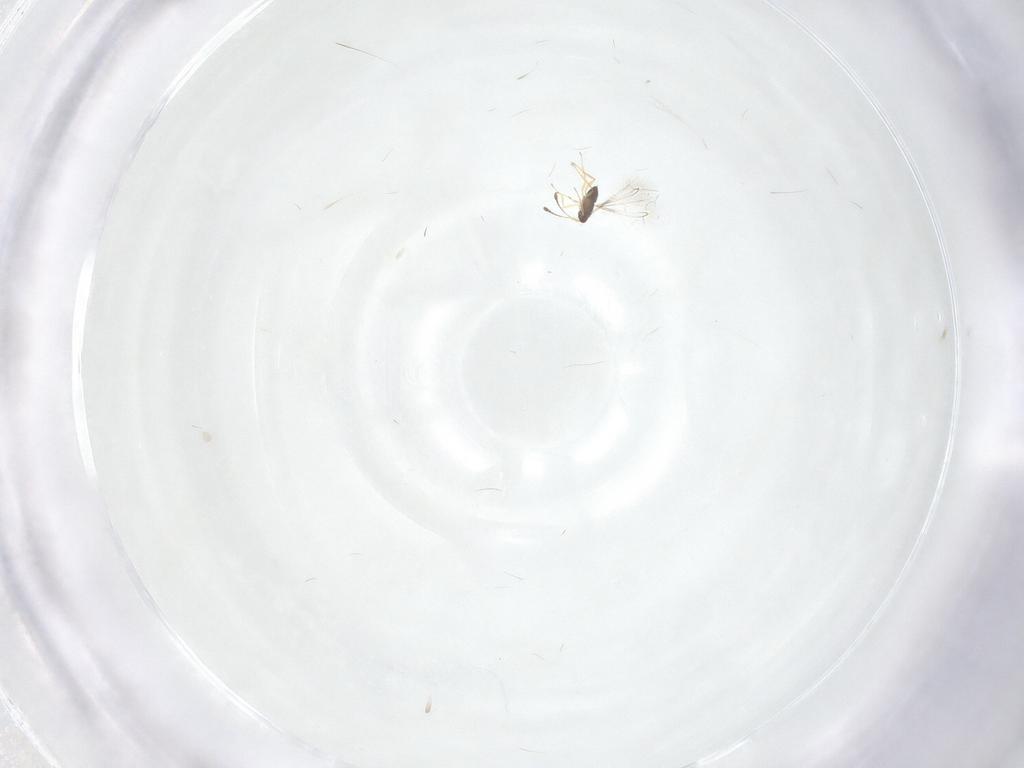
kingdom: Animalia
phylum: Arthropoda
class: Insecta
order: Hymenoptera
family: Mymaridae
